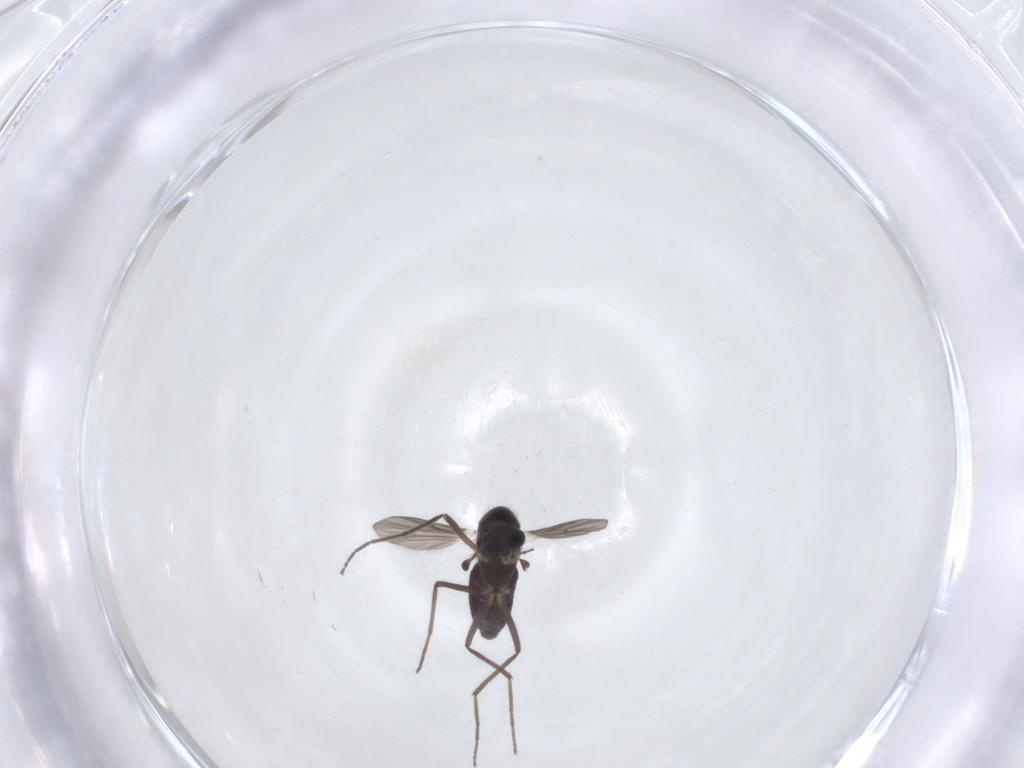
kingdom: Animalia
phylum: Arthropoda
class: Insecta
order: Diptera
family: Chironomidae
